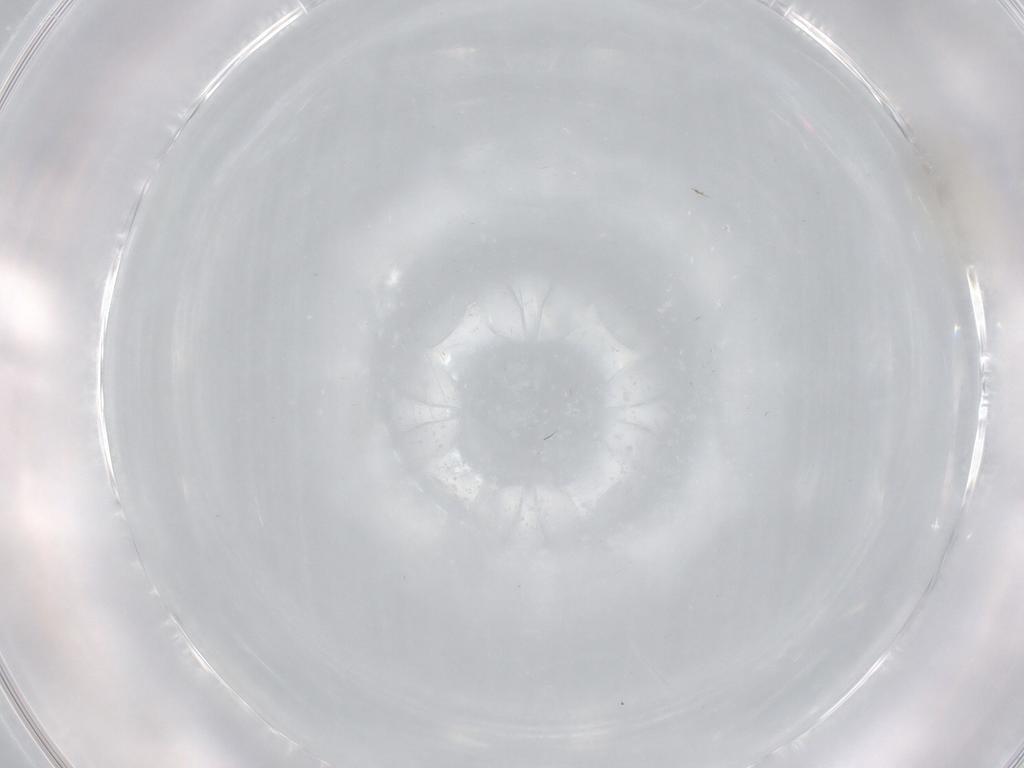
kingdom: Animalia
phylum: Arthropoda
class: Insecta
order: Diptera
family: Cecidomyiidae
